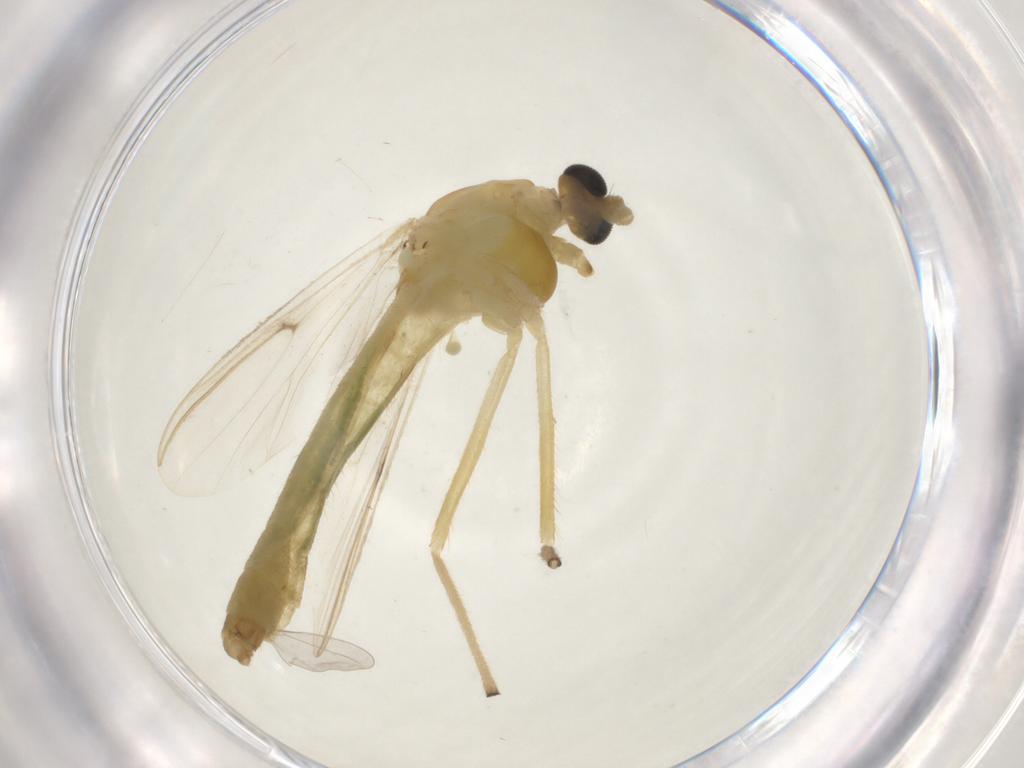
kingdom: Animalia
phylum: Arthropoda
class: Insecta
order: Diptera
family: Chironomidae
